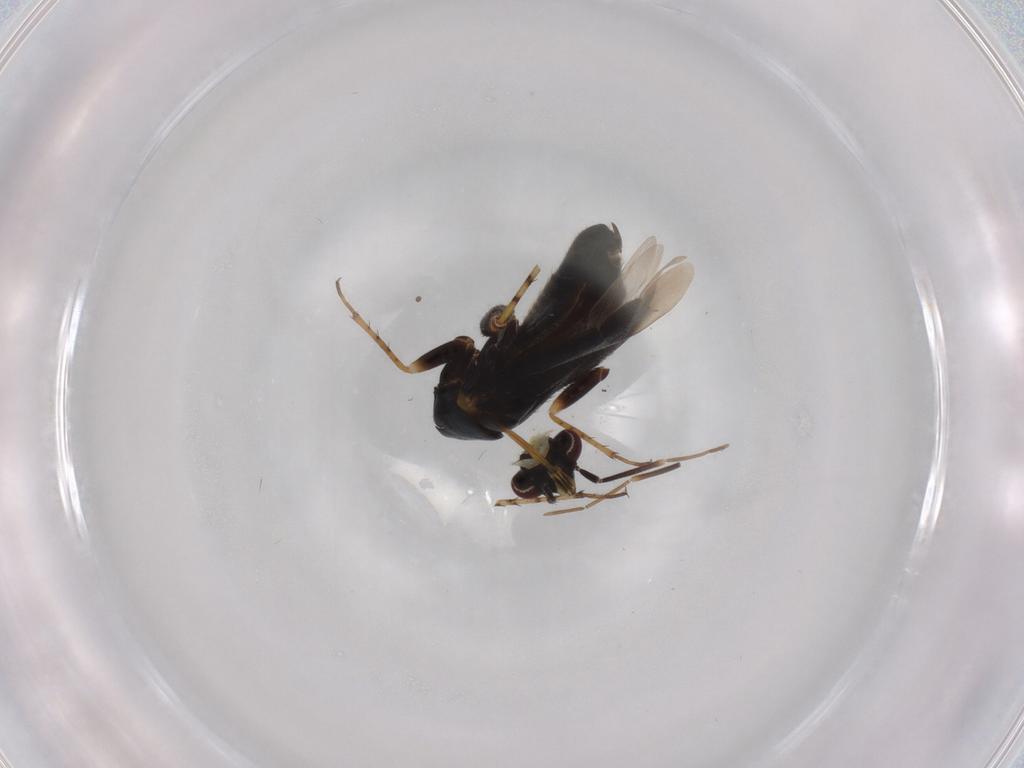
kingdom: Animalia
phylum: Arthropoda
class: Insecta
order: Hemiptera
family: Miridae
